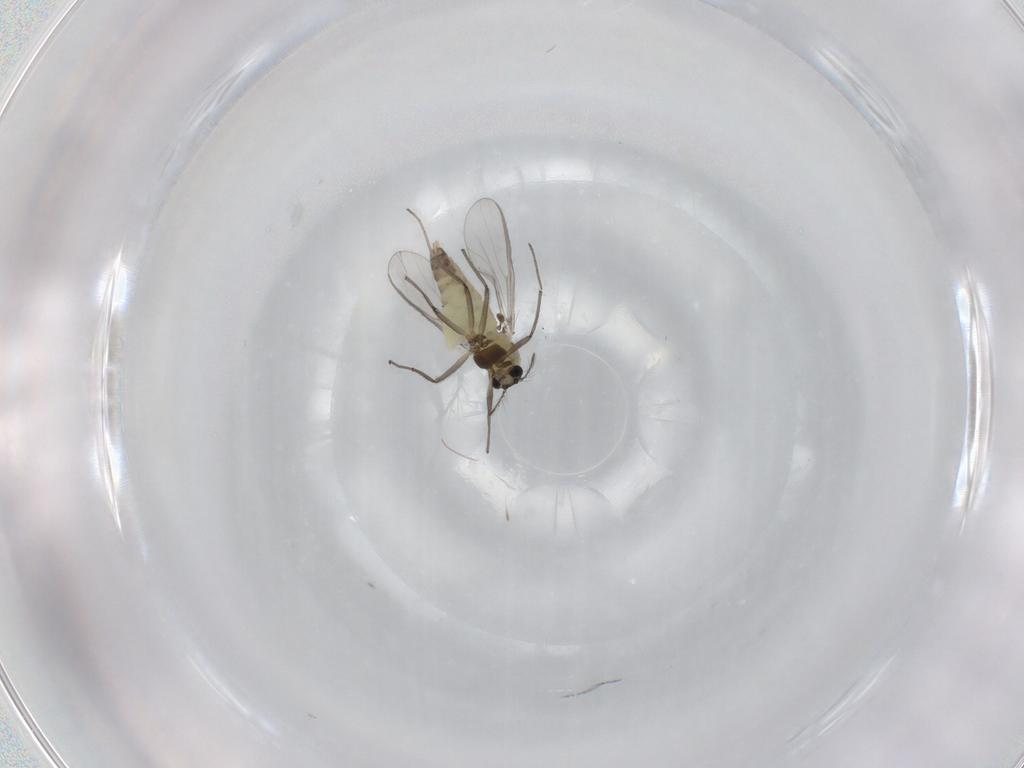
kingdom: Animalia
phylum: Arthropoda
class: Insecta
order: Diptera
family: Chironomidae
